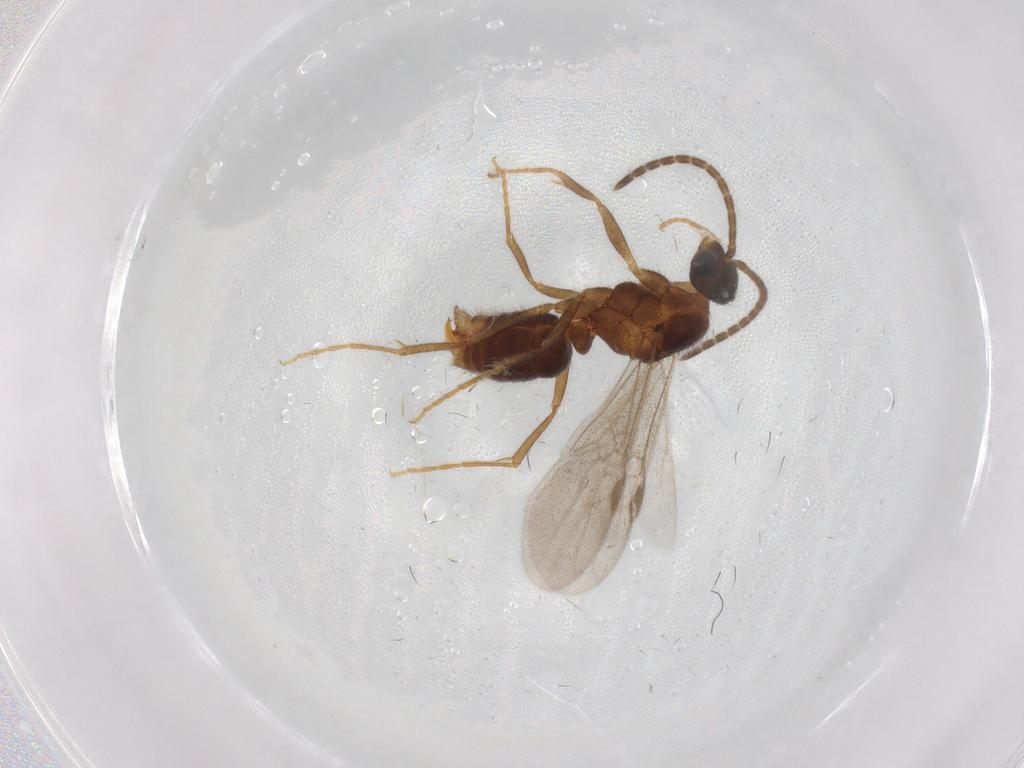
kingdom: Animalia
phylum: Arthropoda
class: Insecta
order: Hymenoptera
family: Formicidae
